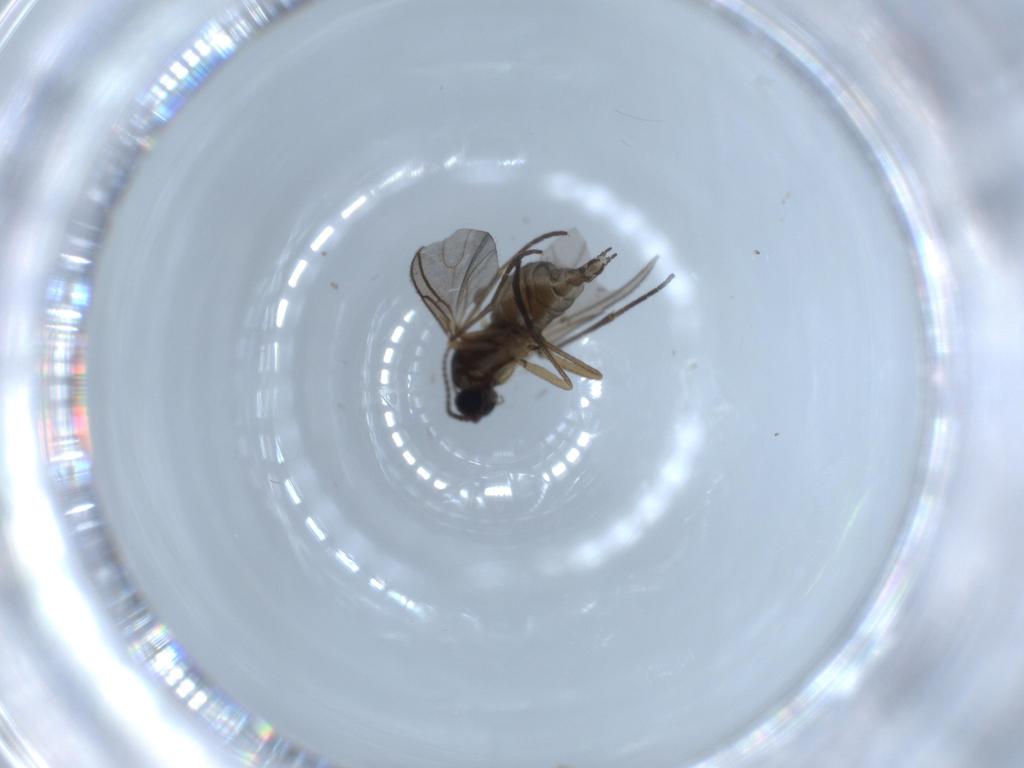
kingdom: Animalia
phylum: Arthropoda
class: Insecta
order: Diptera
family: Sciaridae
